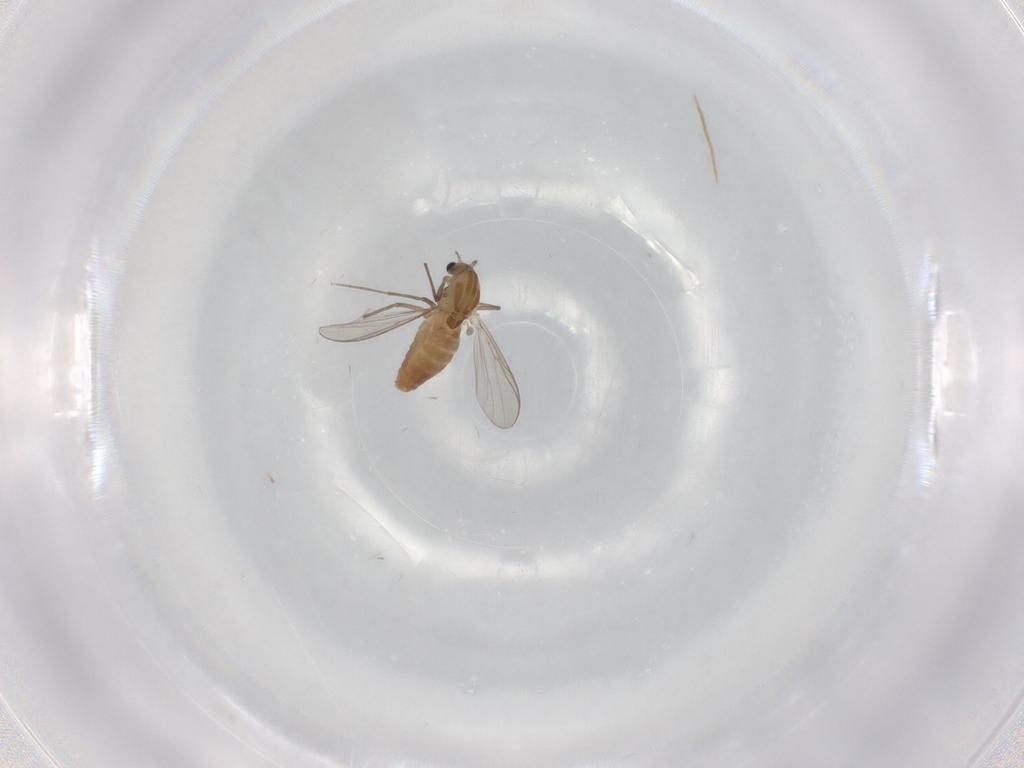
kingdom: Animalia
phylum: Arthropoda
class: Insecta
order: Diptera
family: Chironomidae
